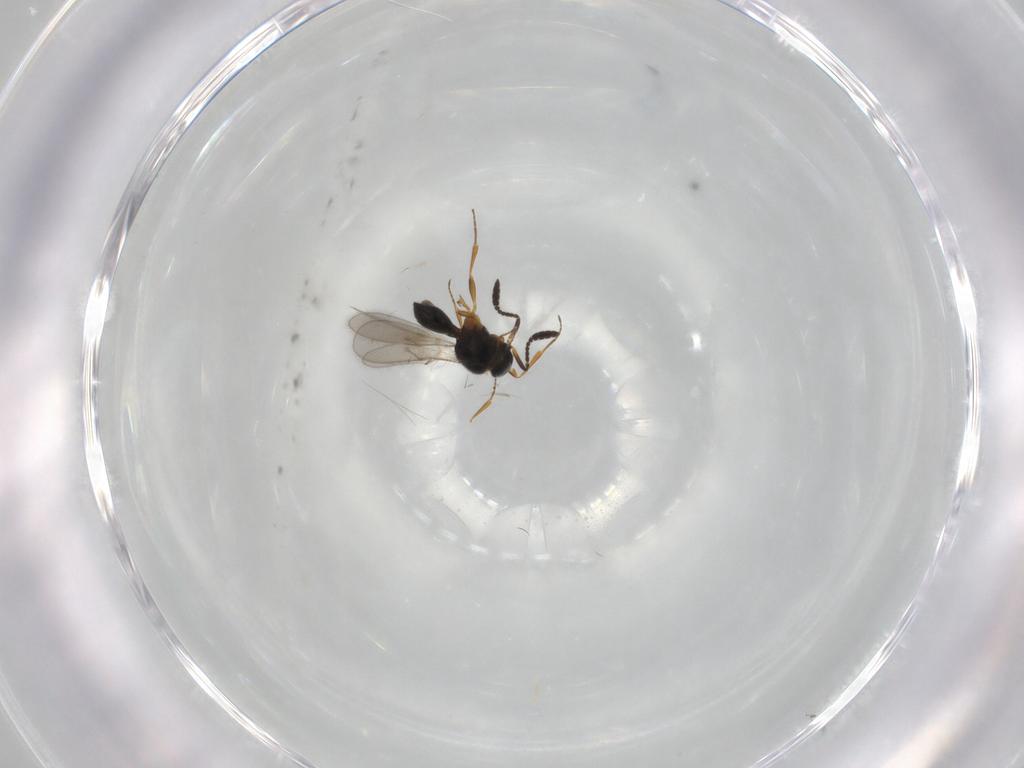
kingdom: Animalia
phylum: Arthropoda
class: Insecta
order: Hymenoptera
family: Scelionidae
